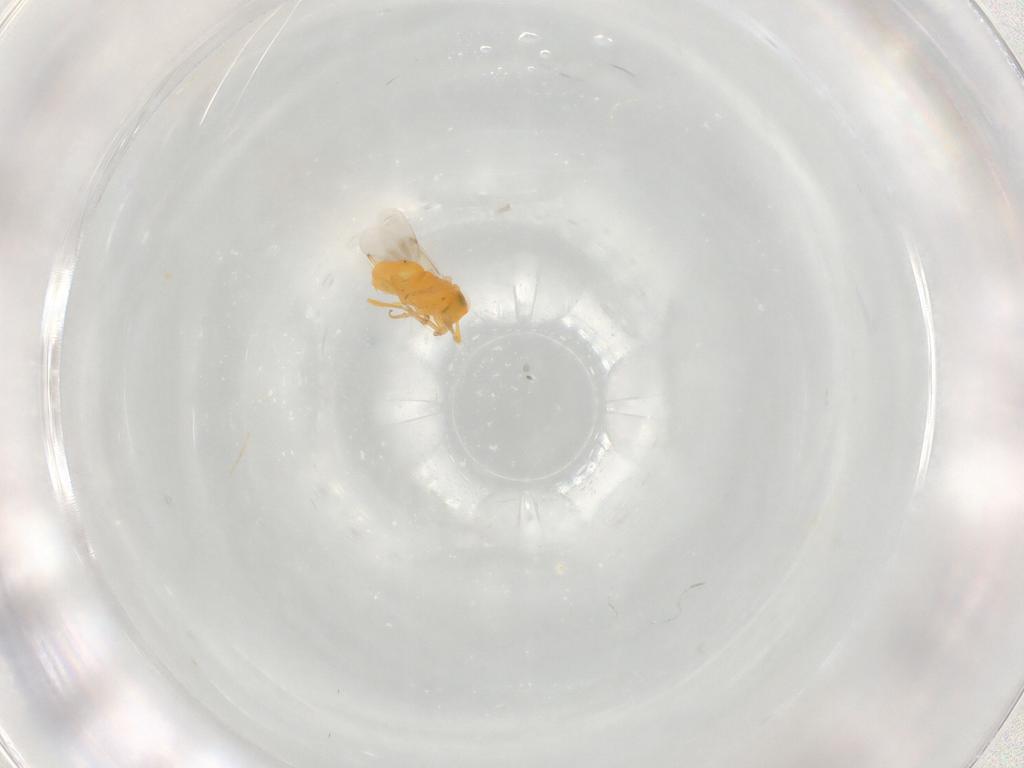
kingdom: Animalia
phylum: Arthropoda
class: Insecta
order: Hymenoptera
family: Encyrtidae
